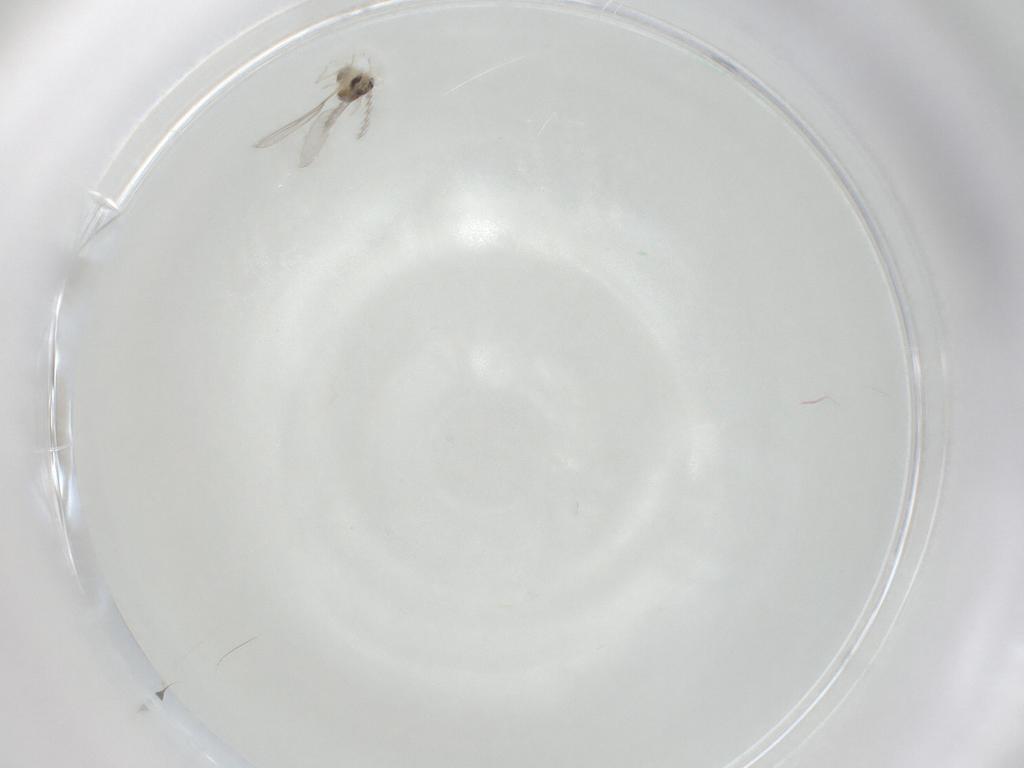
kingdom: Animalia
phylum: Arthropoda
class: Insecta
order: Diptera
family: Cecidomyiidae
